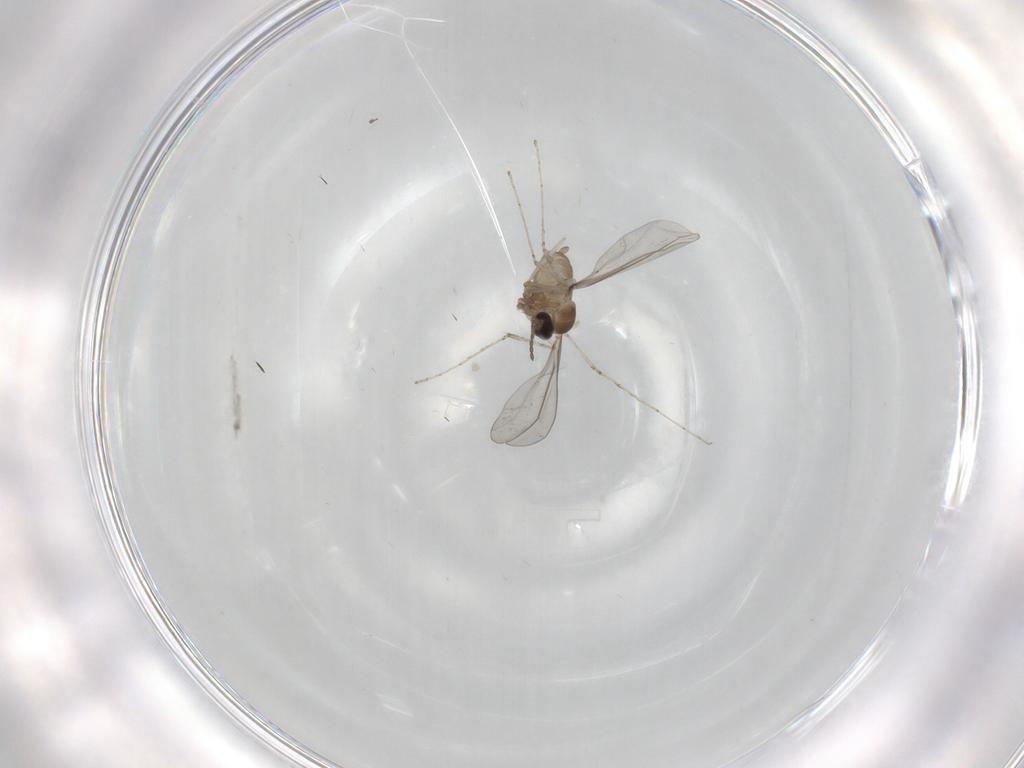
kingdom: Animalia
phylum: Arthropoda
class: Insecta
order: Diptera
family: Cecidomyiidae
